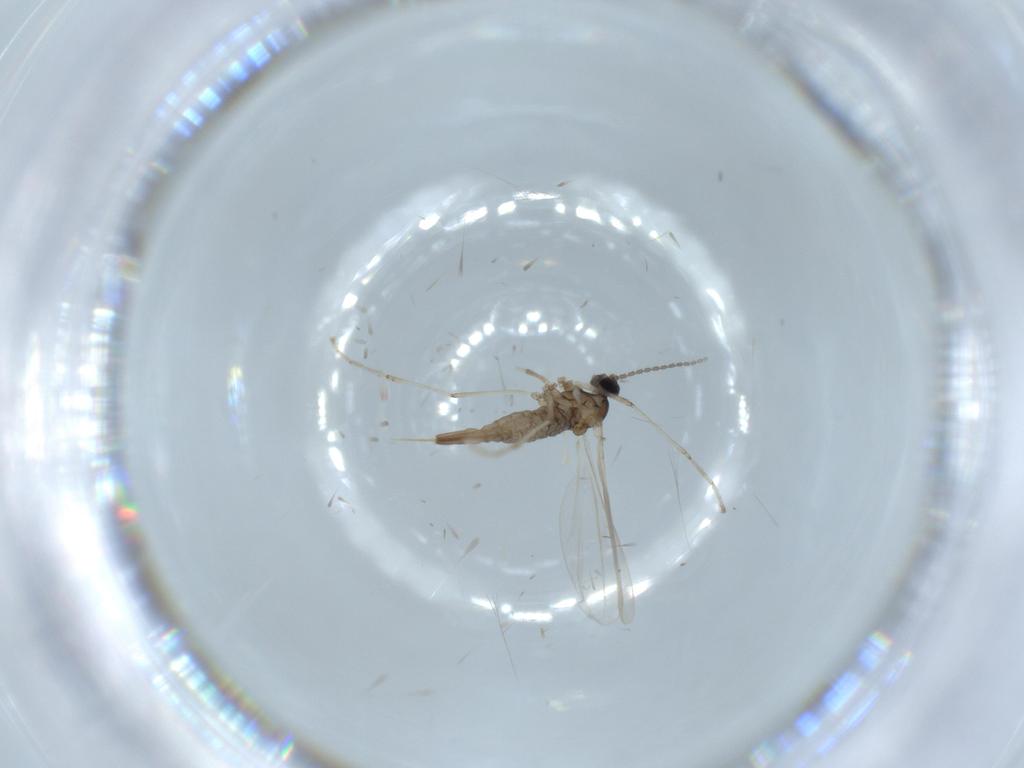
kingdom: Animalia
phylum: Arthropoda
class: Insecta
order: Diptera
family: Cecidomyiidae
